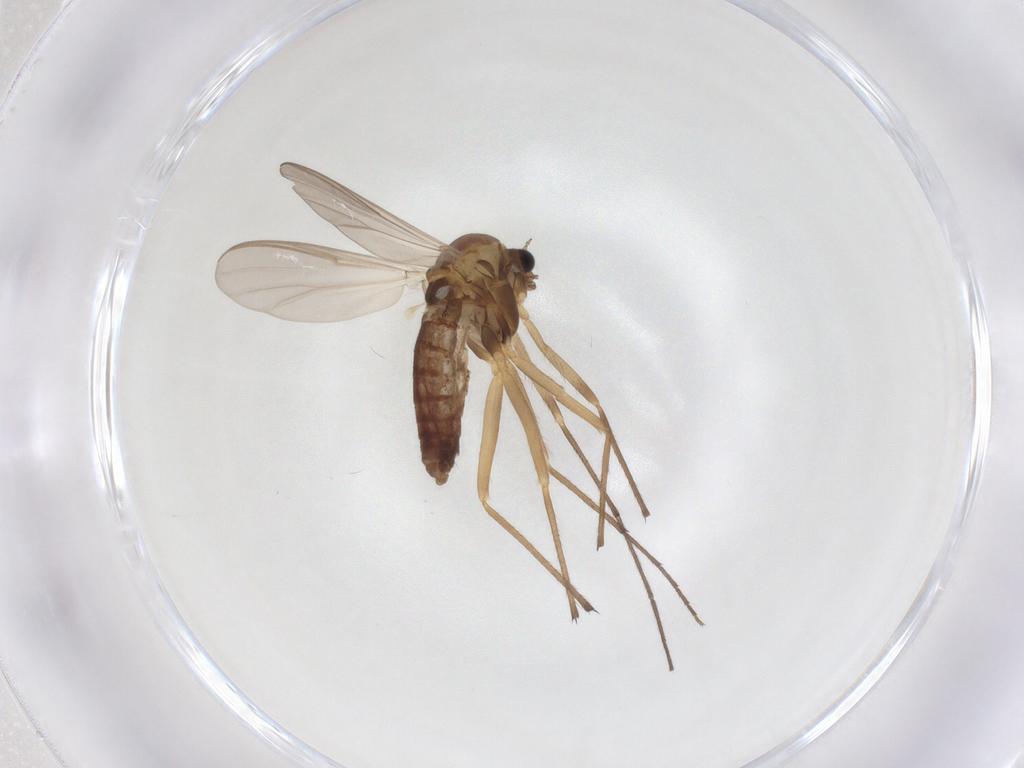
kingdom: Animalia
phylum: Arthropoda
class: Insecta
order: Diptera
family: Chironomidae
